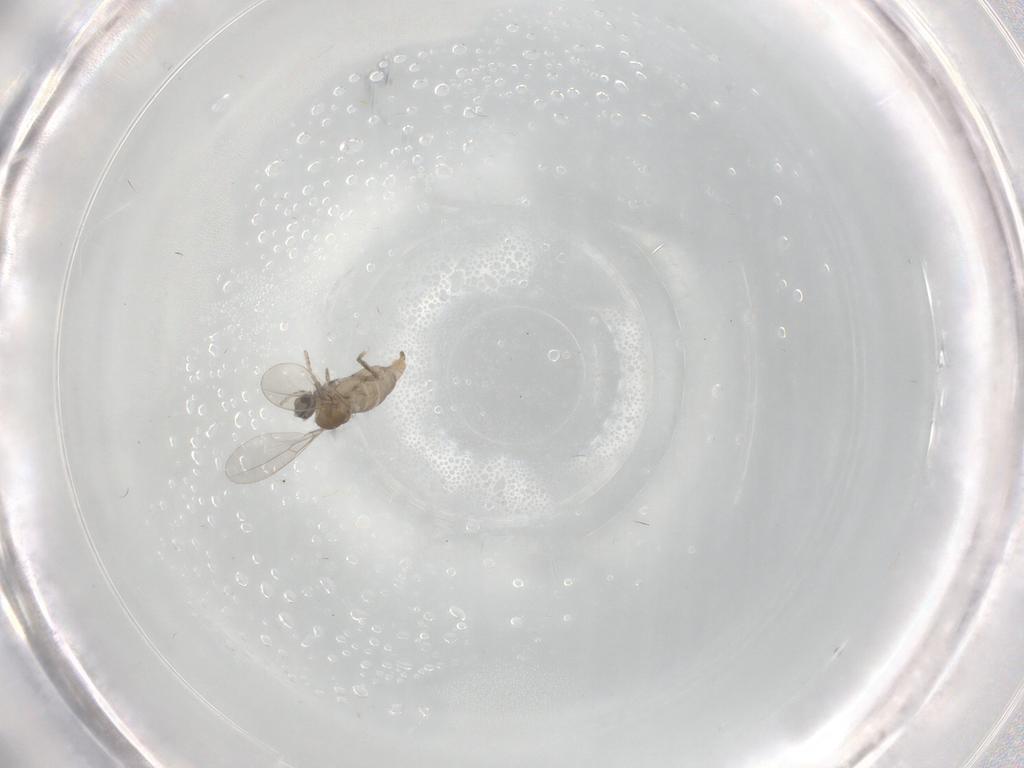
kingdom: Animalia
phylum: Arthropoda
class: Insecta
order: Diptera
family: Cecidomyiidae
